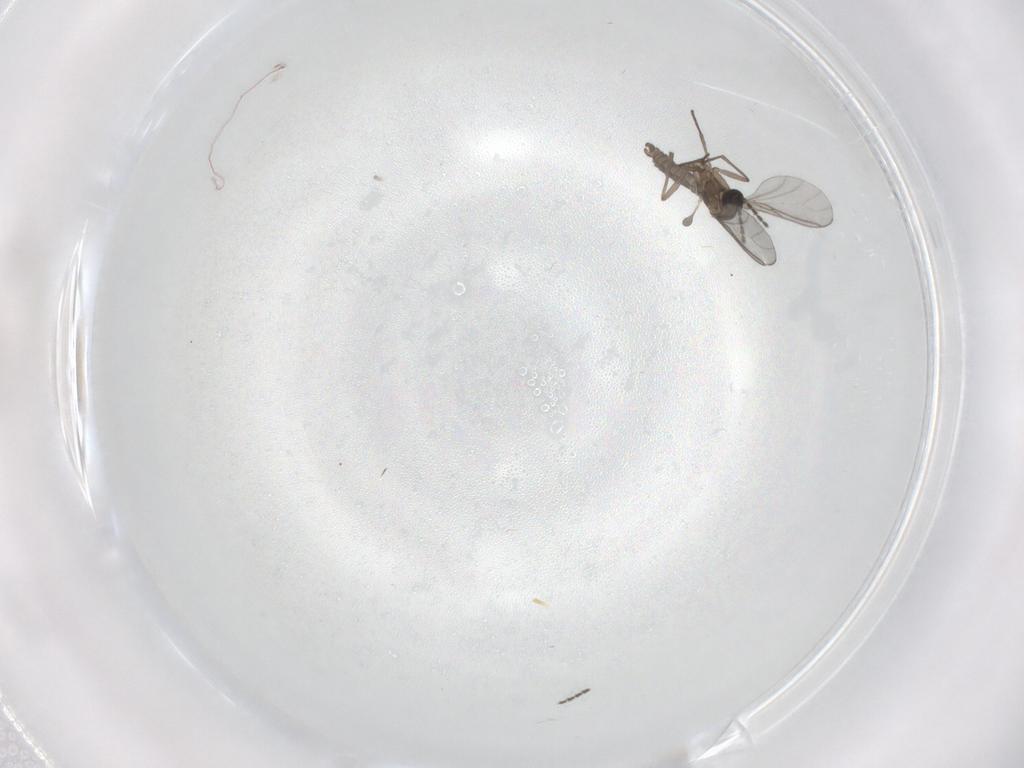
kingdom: Animalia
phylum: Arthropoda
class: Insecta
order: Diptera
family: Sciaridae
